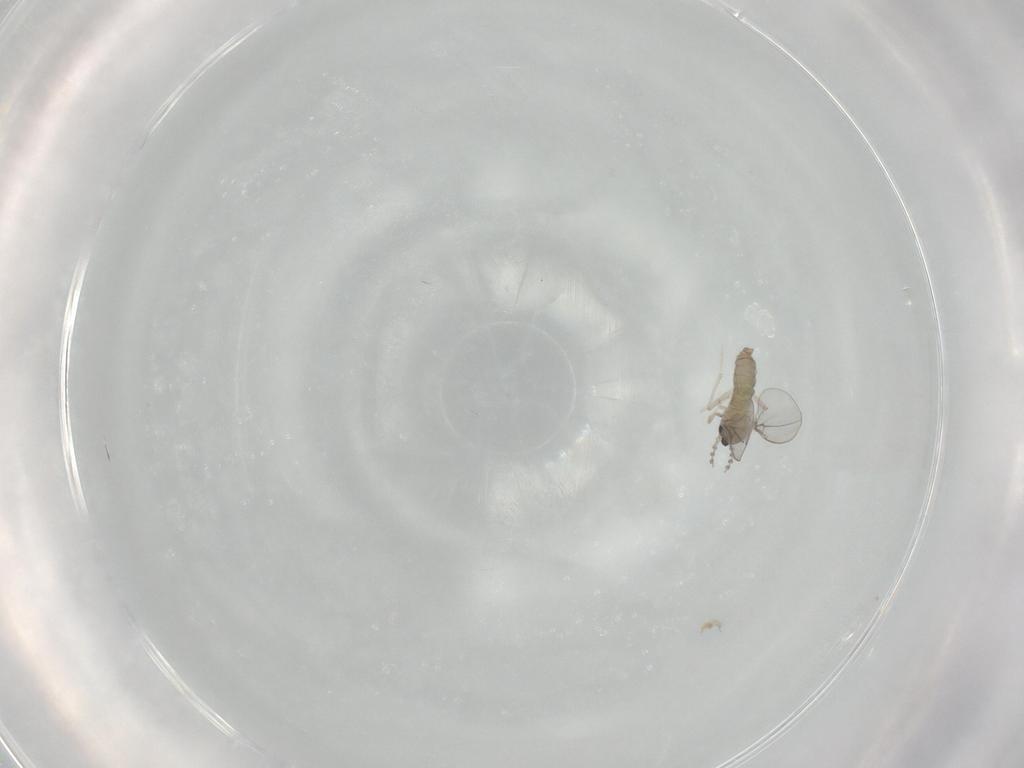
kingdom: Animalia
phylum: Arthropoda
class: Insecta
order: Diptera
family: Cecidomyiidae
